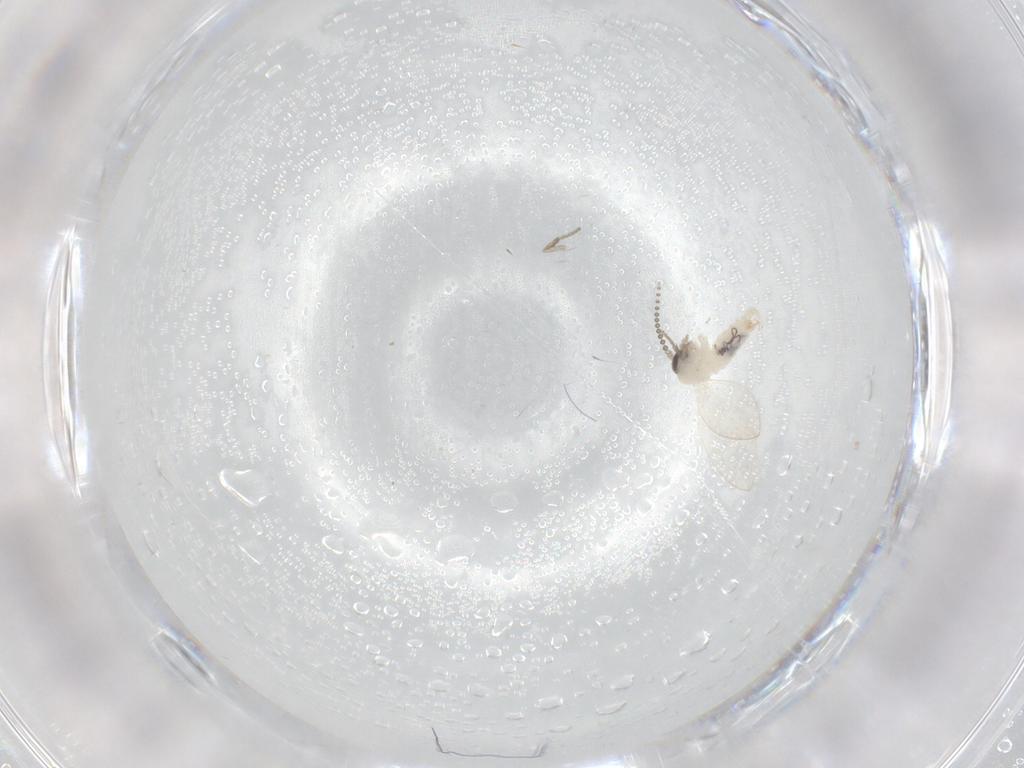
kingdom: Animalia
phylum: Arthropoda
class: Insecta
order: Diptera
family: Psychodidae
